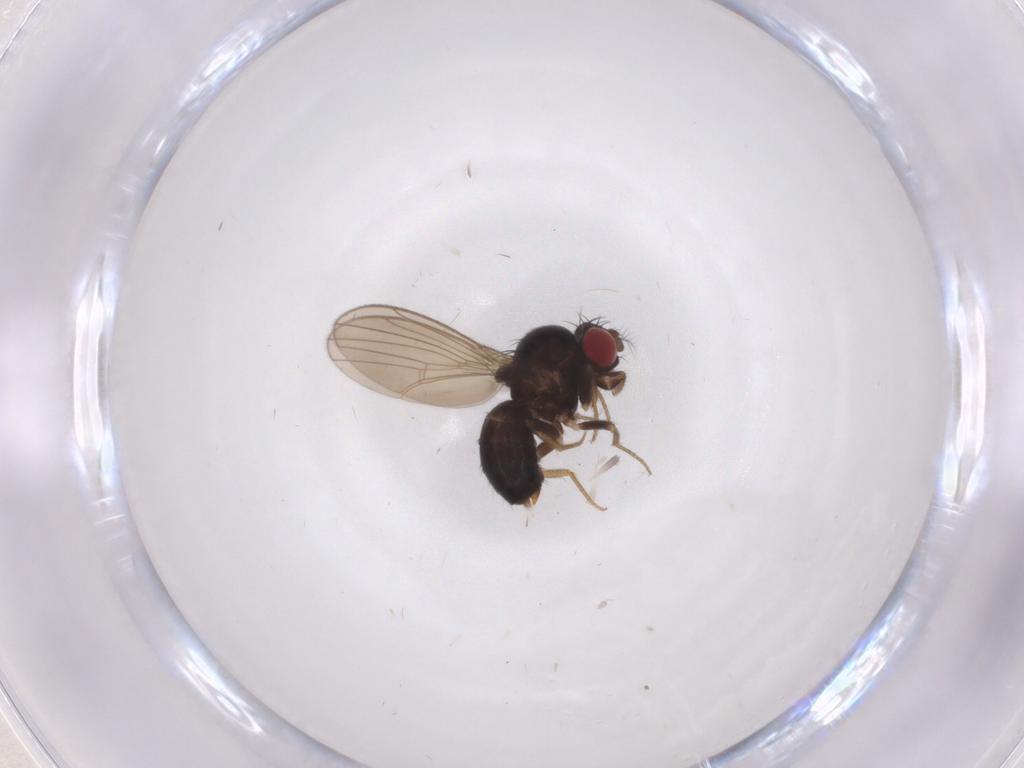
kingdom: Animalia
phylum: Arthropoda
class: Insecta
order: Diptera
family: Drosophilidae
